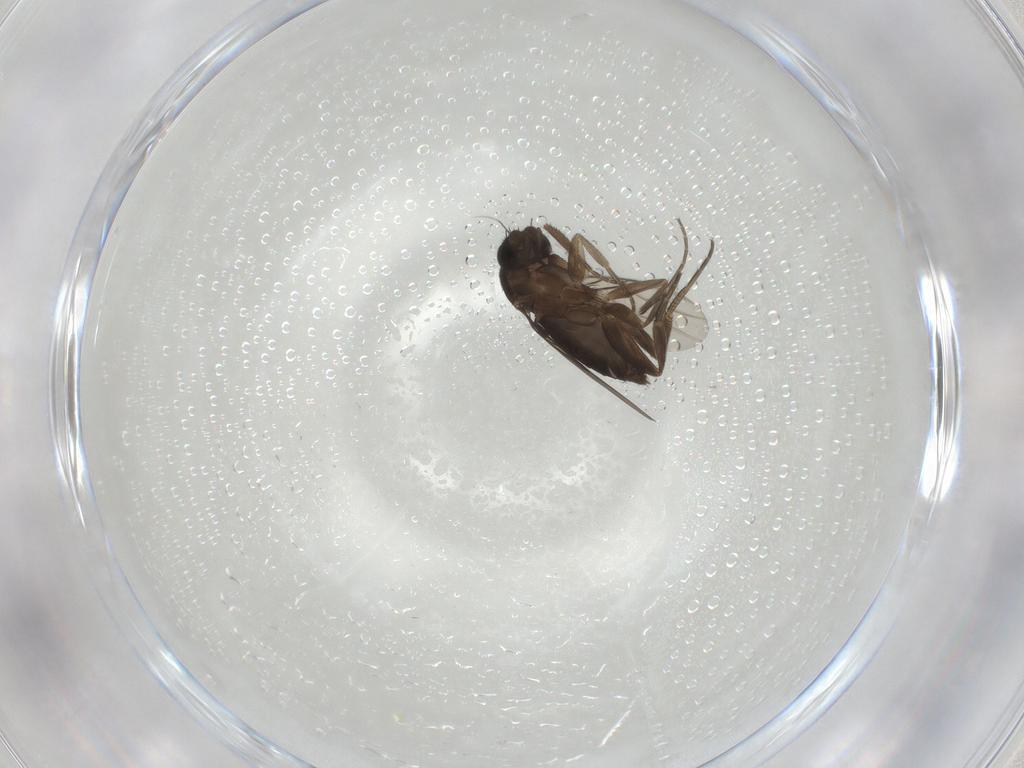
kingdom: Animalia
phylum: Arthropoda
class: Insecta
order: Diptera
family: Phoridae
